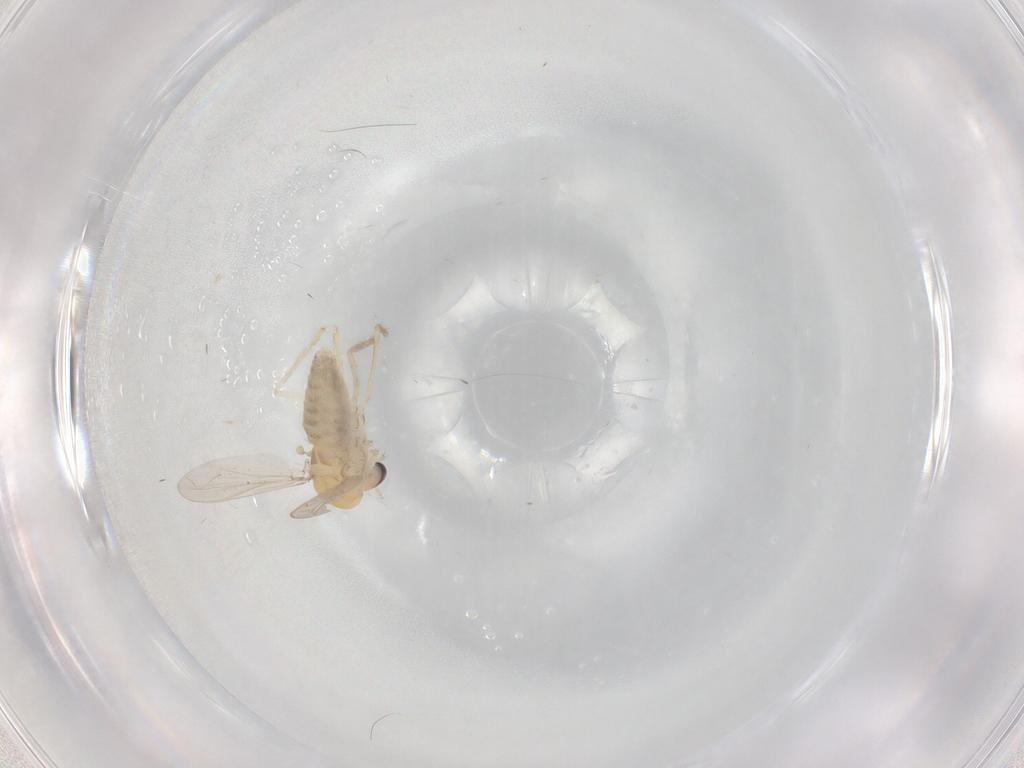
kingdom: Animalia
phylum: Arthropoda
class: Insecta
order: Diptera
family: Chironomidae
